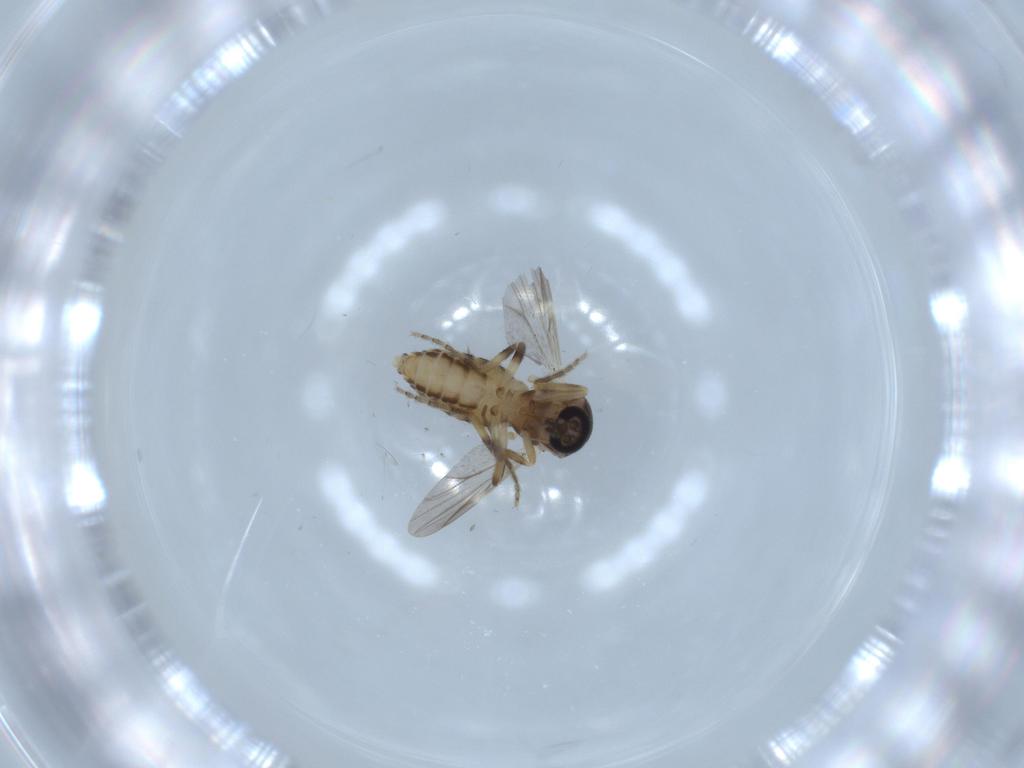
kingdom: Animalia
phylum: Arthropoda
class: Insecta
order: Diptera
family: Ceratopogonidae
